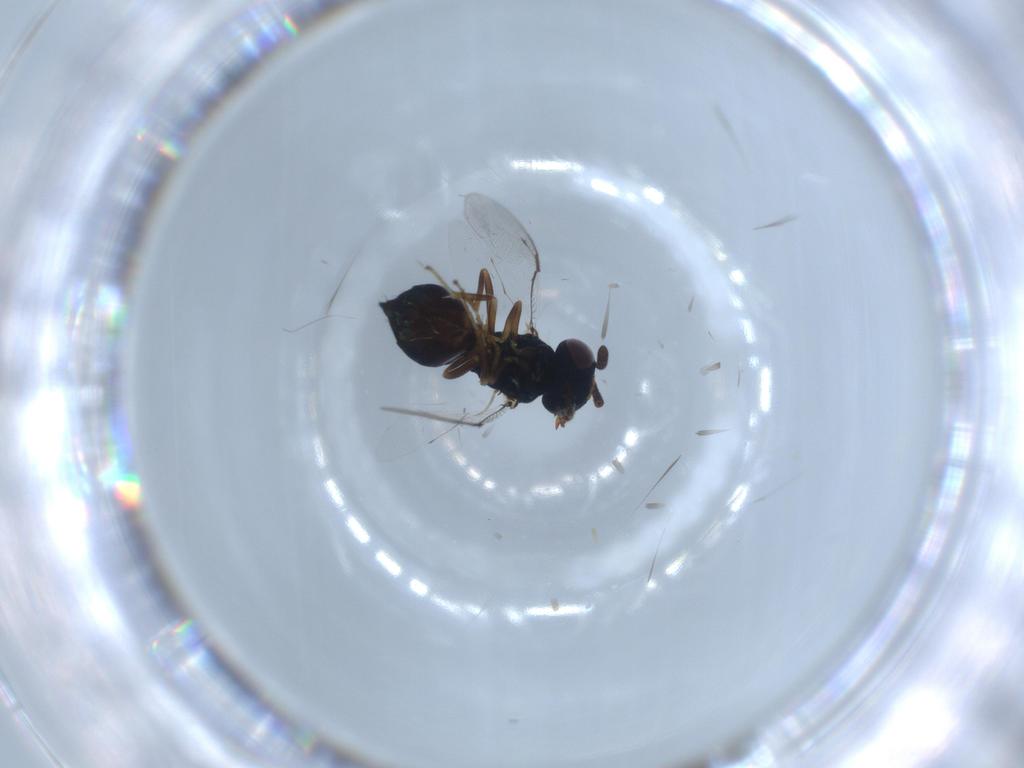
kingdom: Animalia
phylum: Arthropoda
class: Insecta
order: Hymenoptera
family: Pteromalidae
